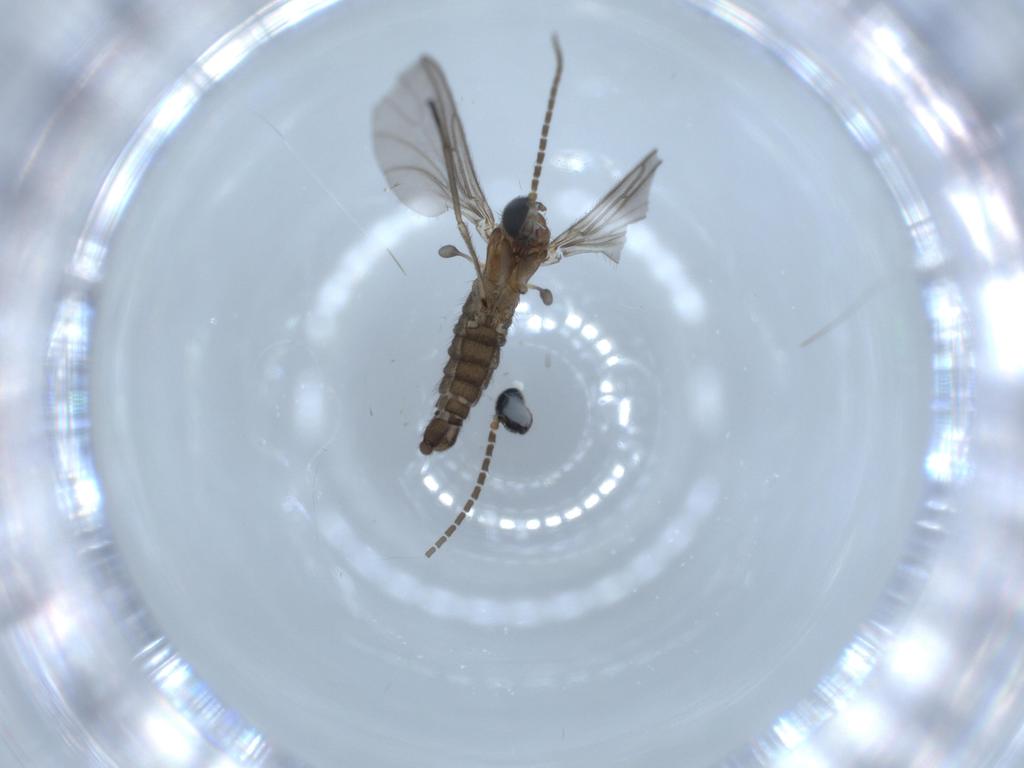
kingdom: Animalia
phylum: Arthropoda
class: Insecta
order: Diptera
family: Sciaridae
